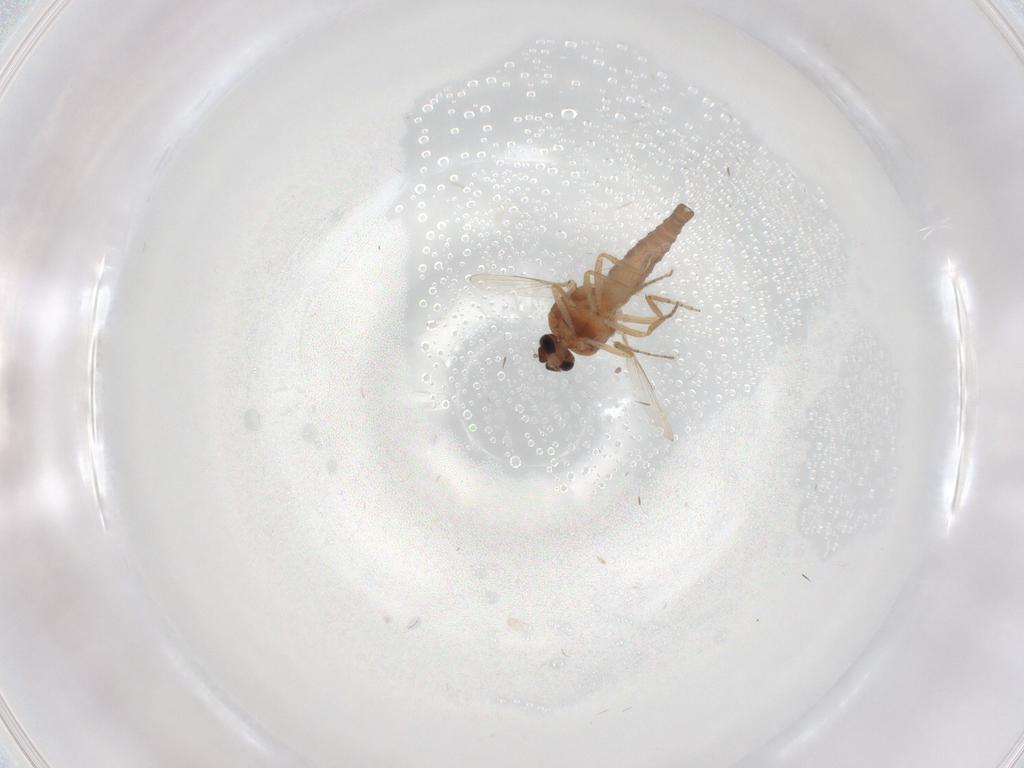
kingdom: Animalia
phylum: Arthropoda
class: Insecta
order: Diptera
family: Ceratopogonidae
